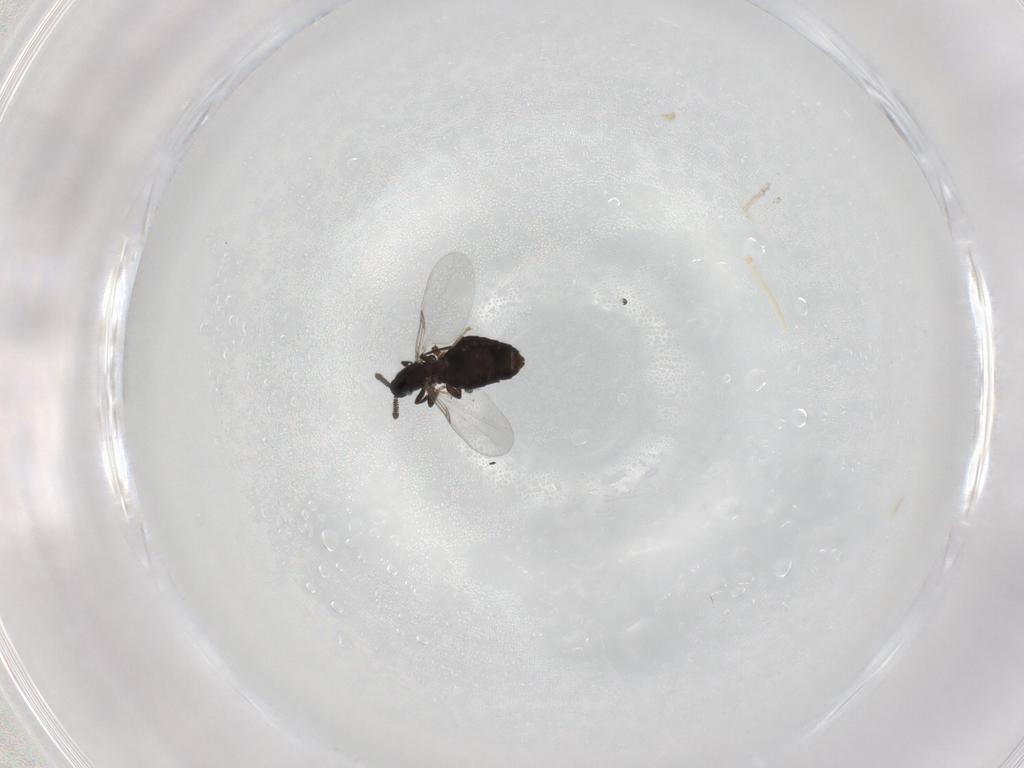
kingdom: Animalia
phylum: Arthropoda
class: Insecta
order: Diptera
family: Scatopsidae
